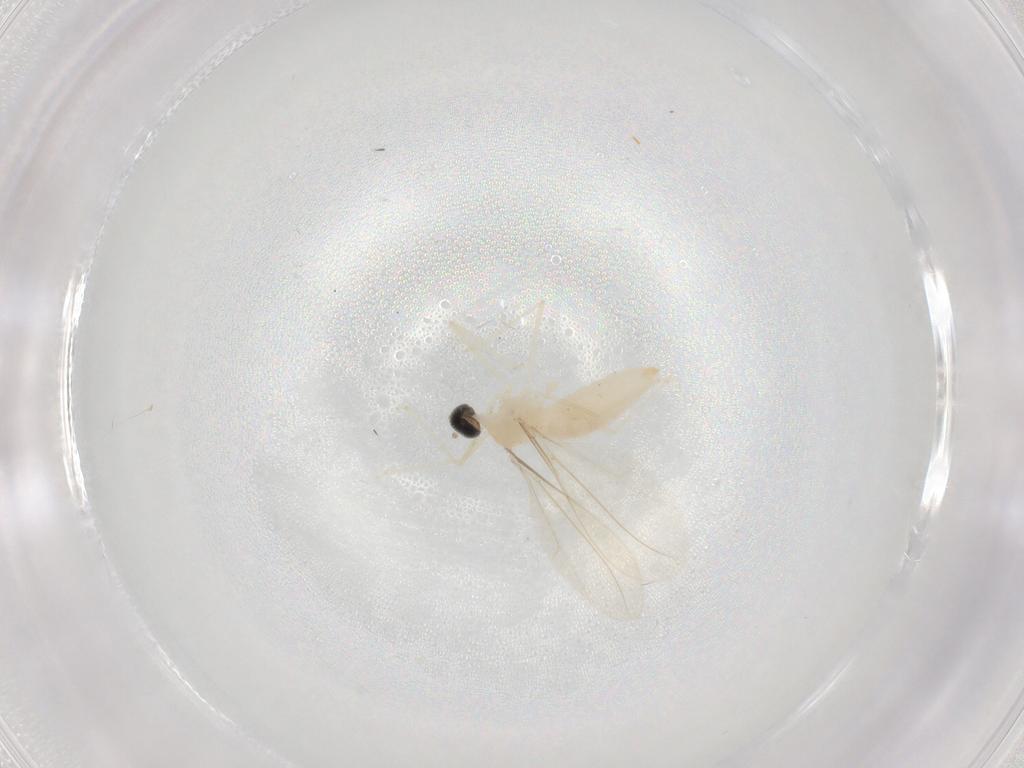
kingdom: Animalia
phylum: Arthropoda
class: Insecta
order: Diptera
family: Cecidomyiidae
